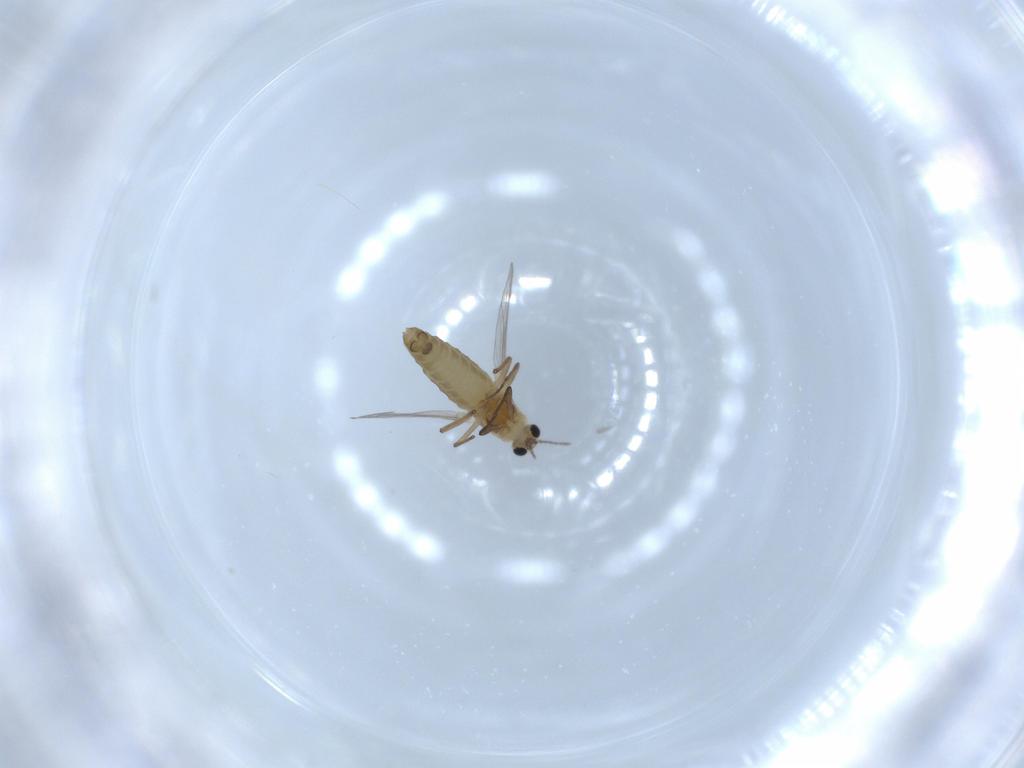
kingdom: Animalia
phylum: Arthropoda
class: Insecta
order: Diptera
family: Chironomidae
